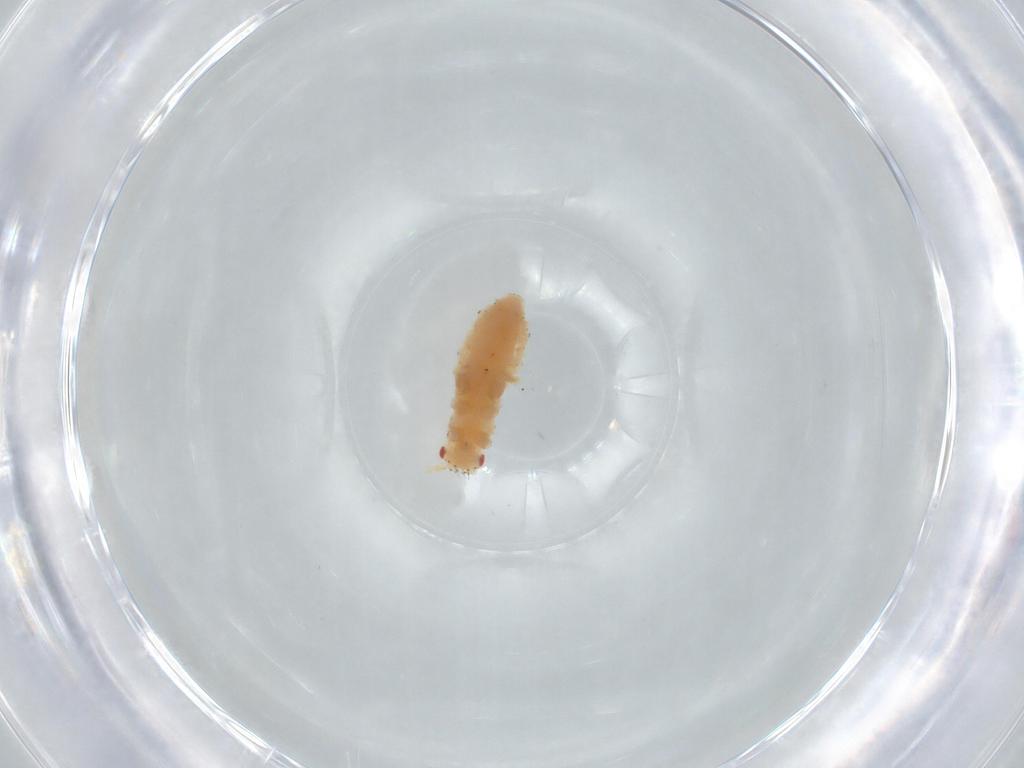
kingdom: Animalia
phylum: Arthropoda
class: Insecta
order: Hemiptera
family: Aphididae
